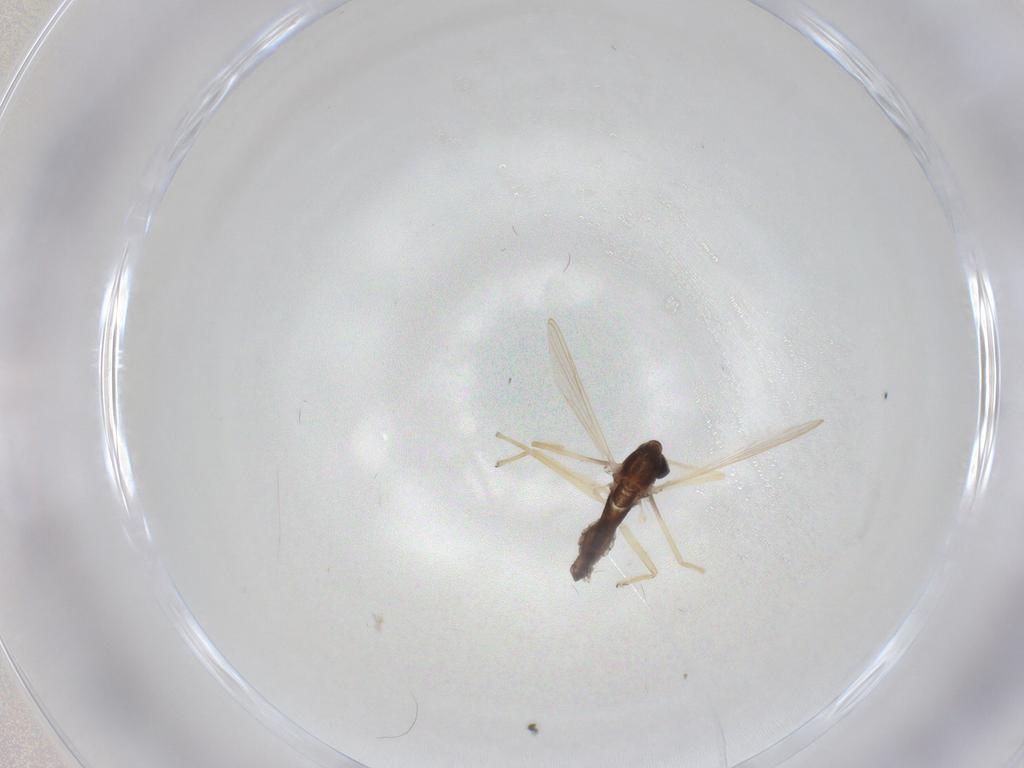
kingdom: Animalia
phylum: Arthropoda
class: Insecta
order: Diptera
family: Chironomidae
